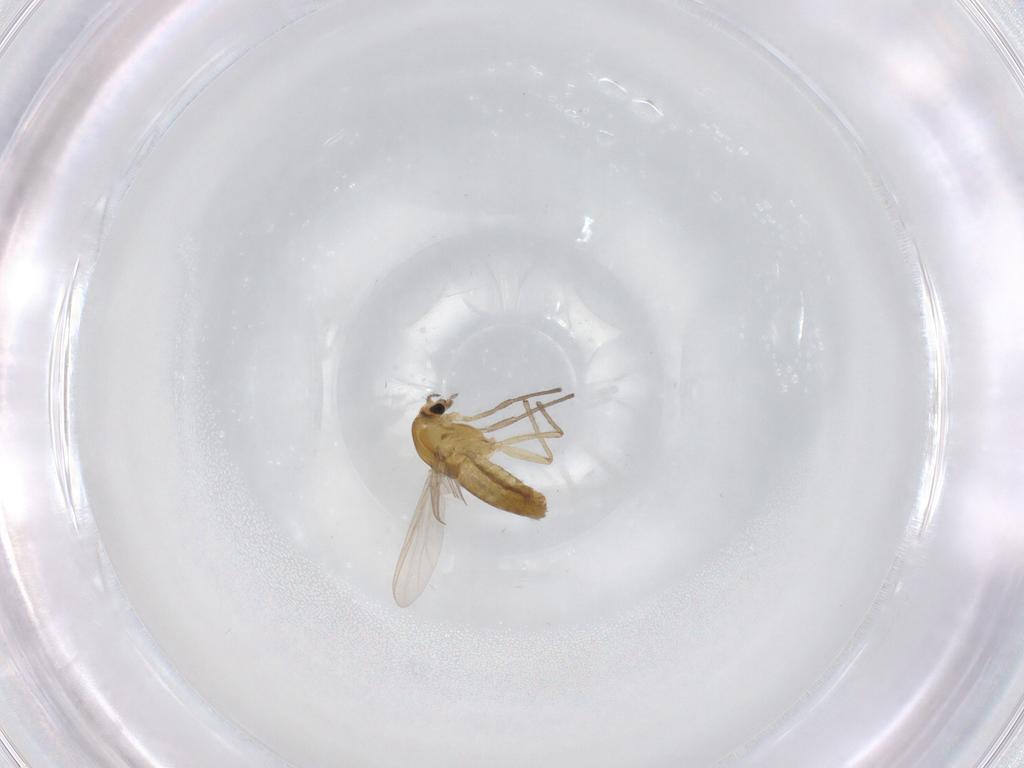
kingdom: Animalia
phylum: Arthropoda
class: Insecta
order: Diptera
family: Chironomidae
